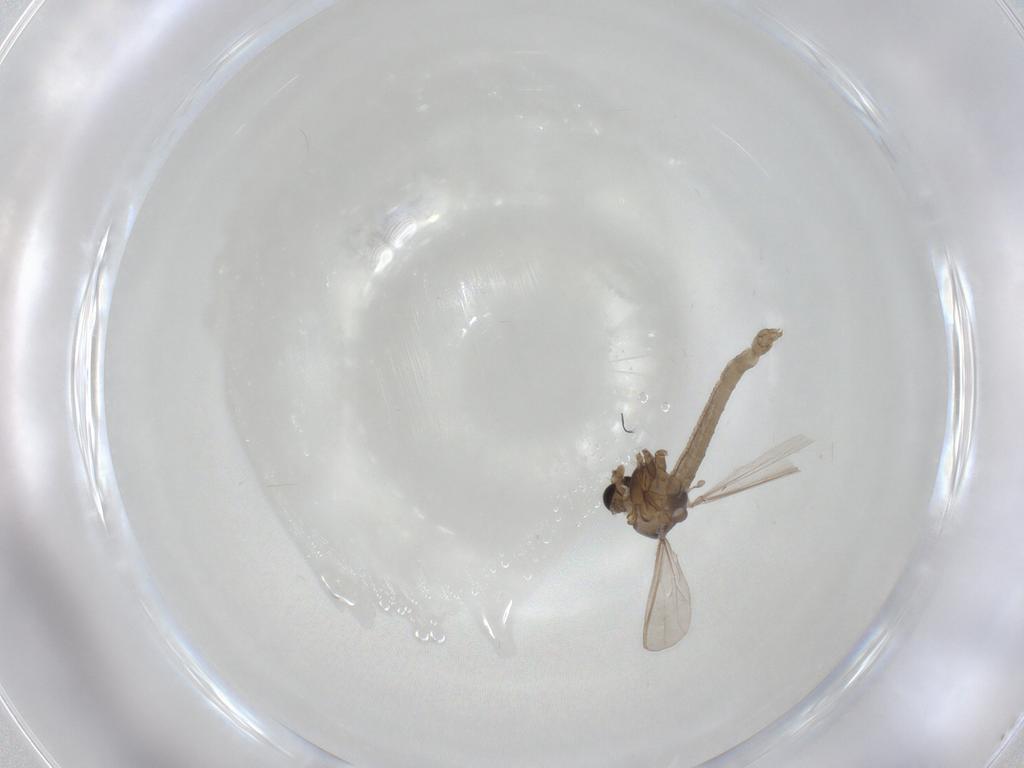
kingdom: Animalia
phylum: Arthropoda
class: Insecta
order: Diptera
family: Chironomidae
